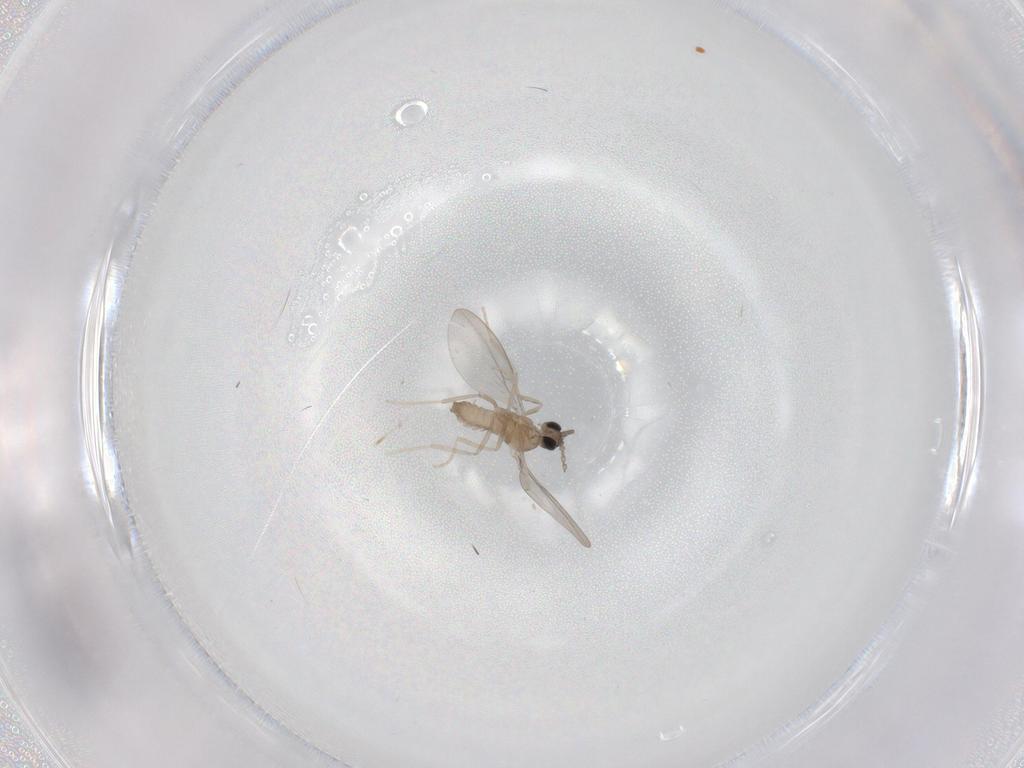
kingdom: Animalia
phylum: Arthropoda
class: Insecta
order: Diptera
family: Cecidomyiidae
